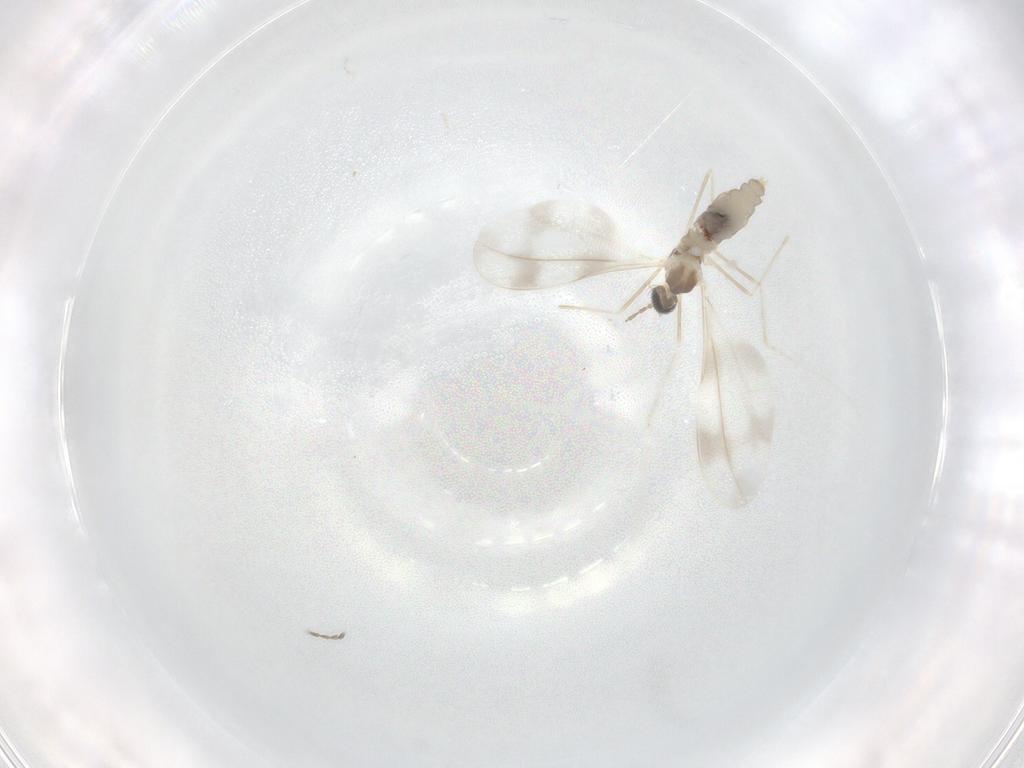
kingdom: Animalia
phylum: Arthropoda
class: Insecta
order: Diptera
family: Cecidomyiidae
